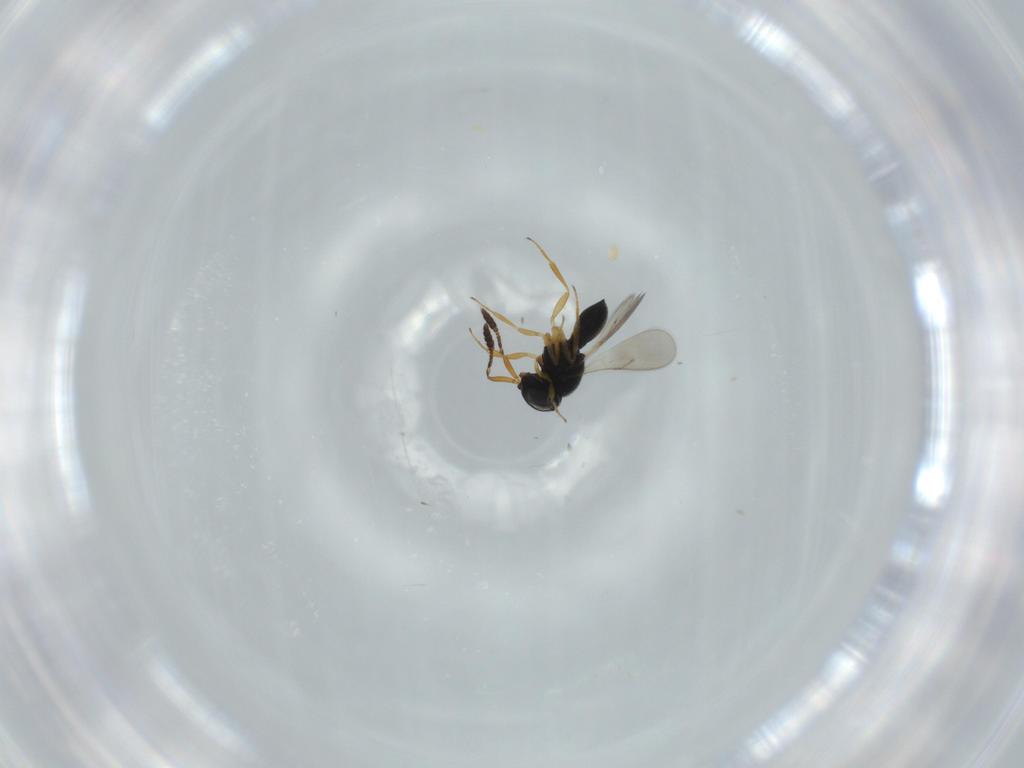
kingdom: Animalia
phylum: Arthropoda
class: Insecta
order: Hymenoptera
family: Scelionidae
